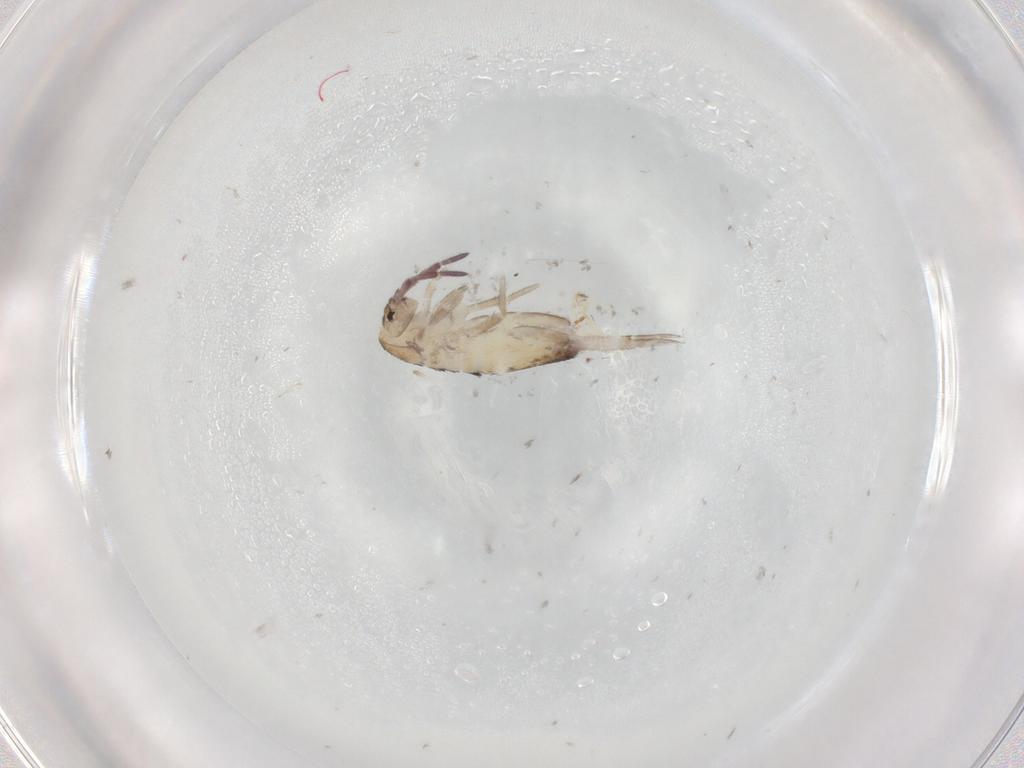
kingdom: Animalia
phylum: Arthropoda
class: Collembola
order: Entomobryomorpha
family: Entomobryidae
